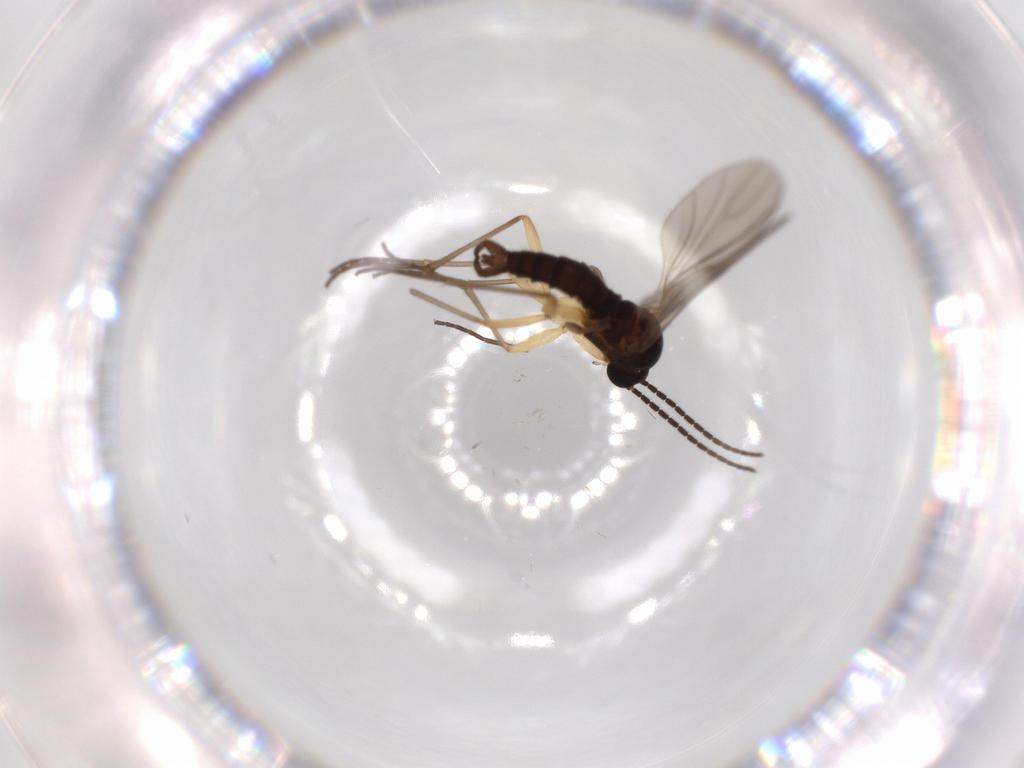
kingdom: Animalia
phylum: Arthropoda
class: Insecta
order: Diptera
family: Sciaridae
